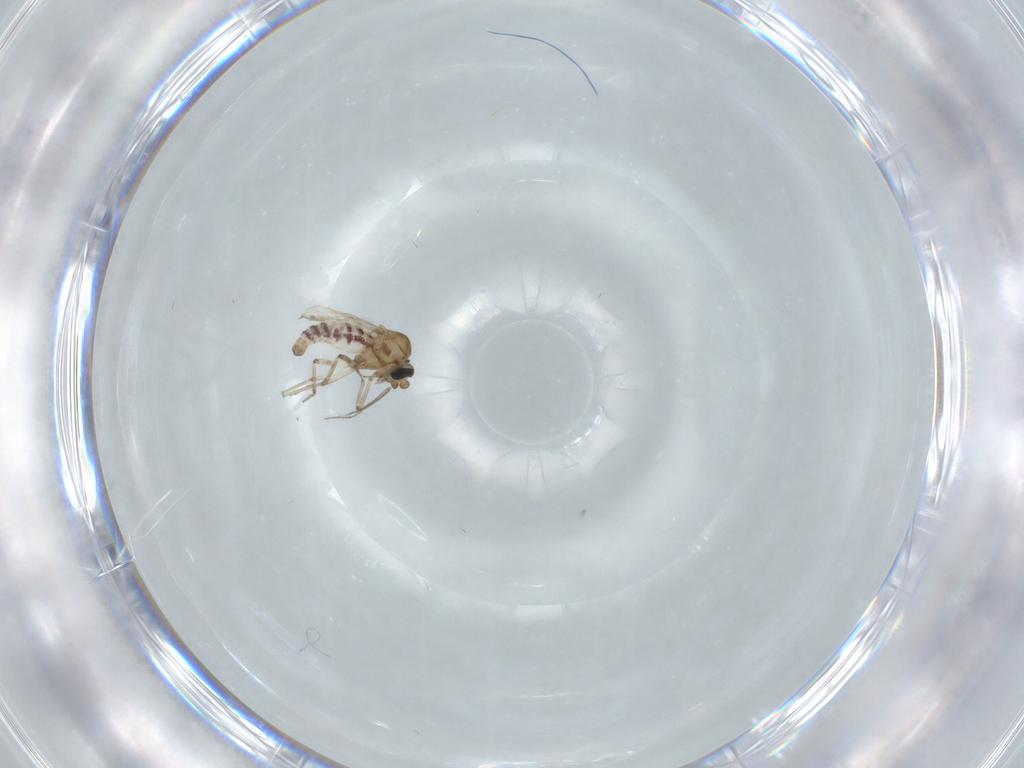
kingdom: Animalia
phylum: Arthropoda
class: Insecta
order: Diptera
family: Ceratopogonidae
